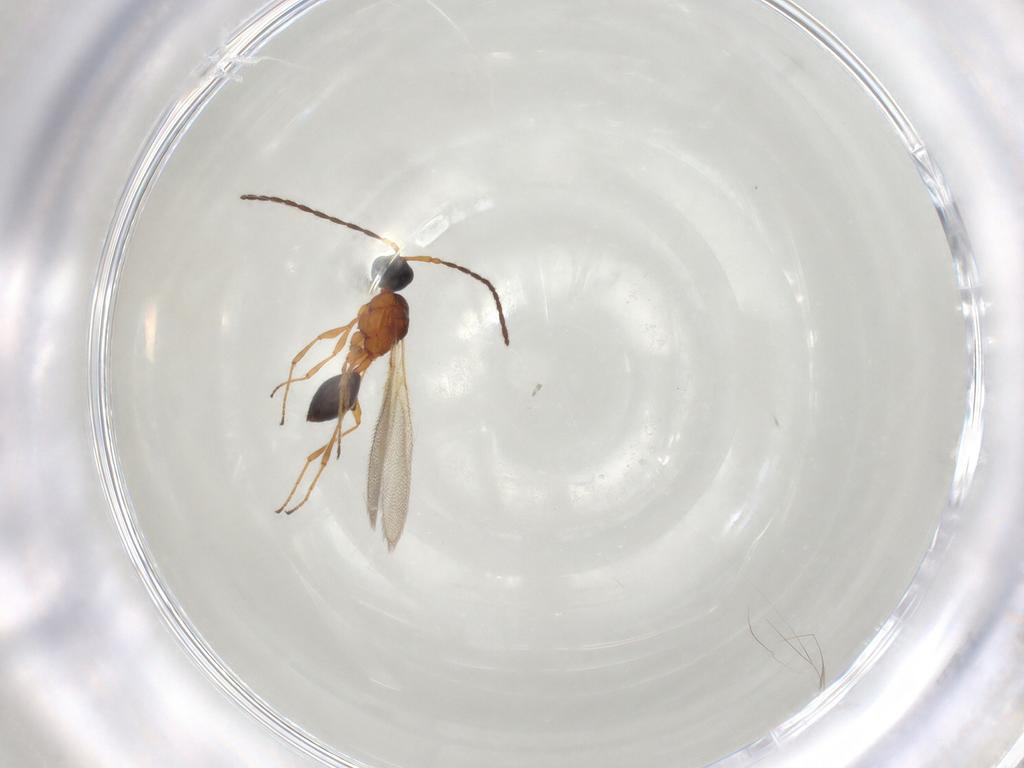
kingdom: Animalia
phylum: Arthropoda
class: Insecta
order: Hymenoptera
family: Diapriidae
